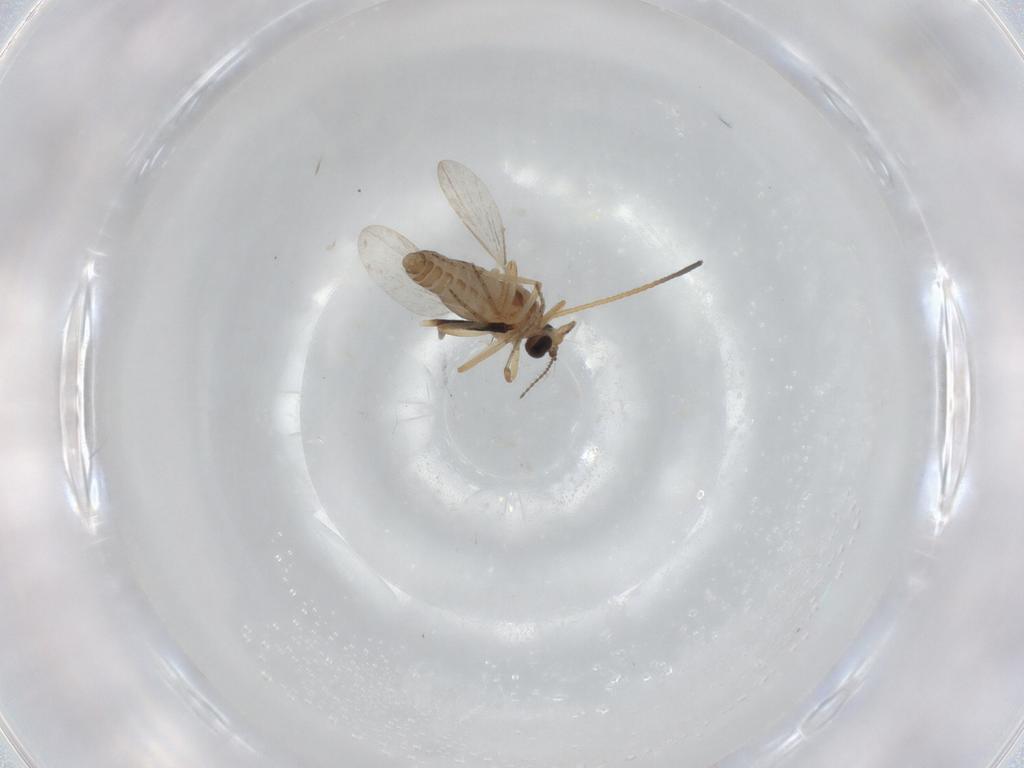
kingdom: Animalia
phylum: Arthropoda
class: Insecta
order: Diptera
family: Ceratopogonidae
